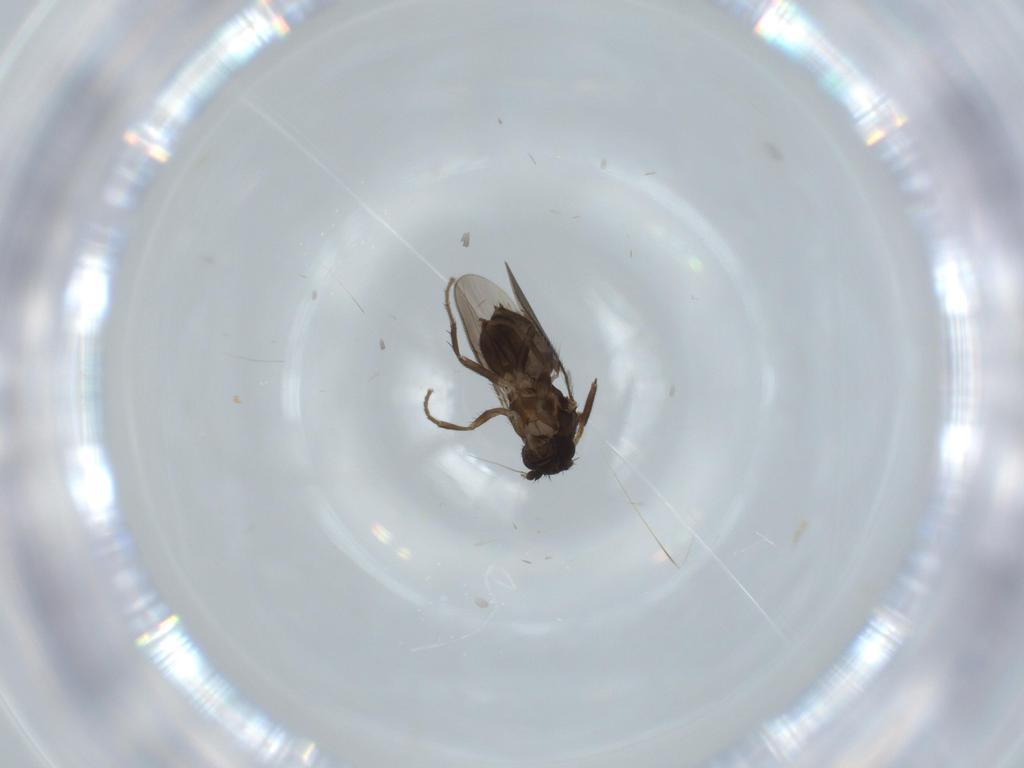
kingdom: Animalia
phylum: Arthropoda
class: Insecta
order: Diptera
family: Sphaeroceridae
